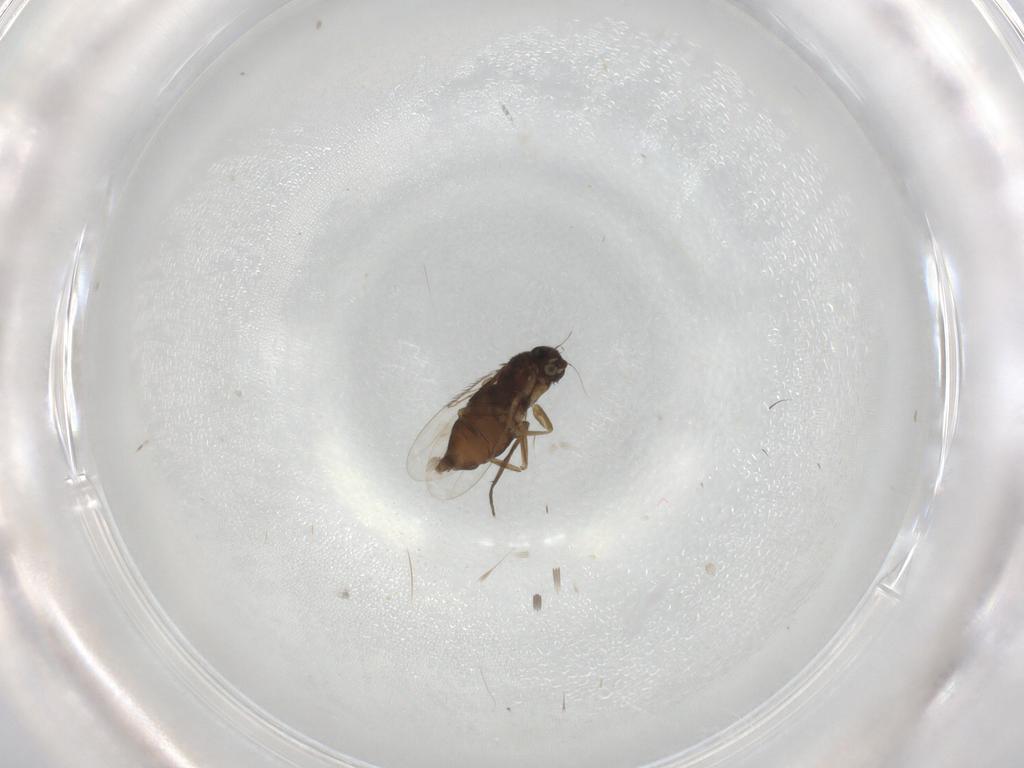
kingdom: Animalia
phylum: Arthropoda
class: Insecta
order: Diptera
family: Phoridae
